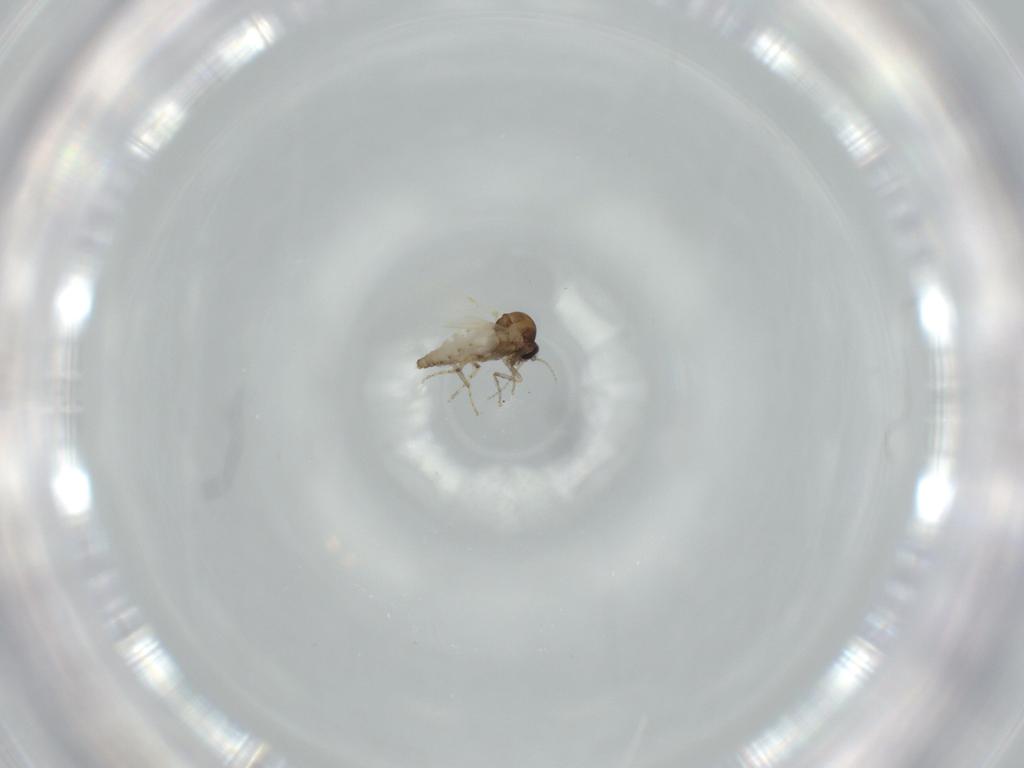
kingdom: Animalia
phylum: Arthropoda
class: Insecta
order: Diptera
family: Ceratopogonidae
